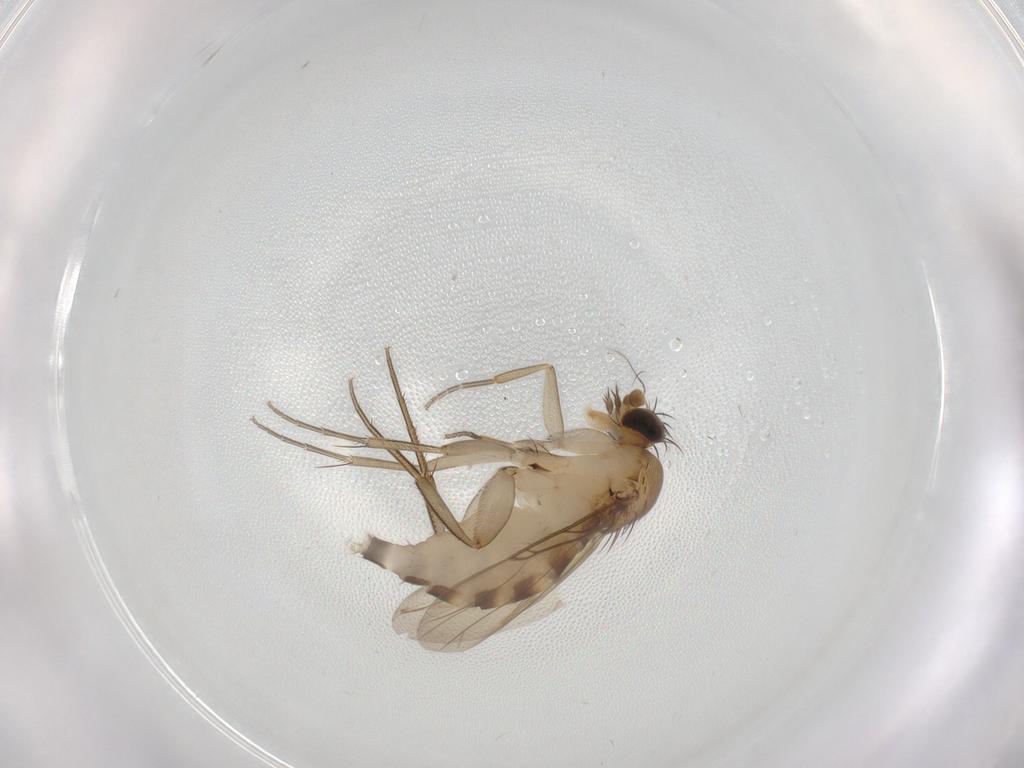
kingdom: Animalia
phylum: Arthropoda
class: Insecta
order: Diptera
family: Phoridae
